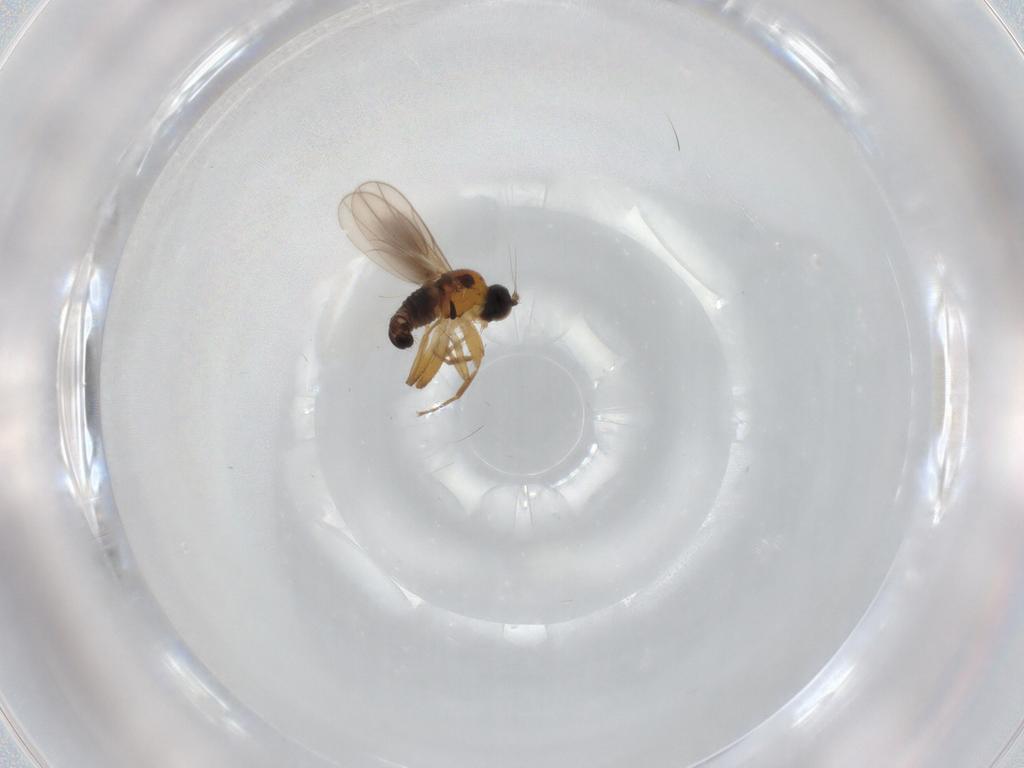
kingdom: Animalia
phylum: Arthropoda
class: Insecta
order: Diptera
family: Hybotidae
